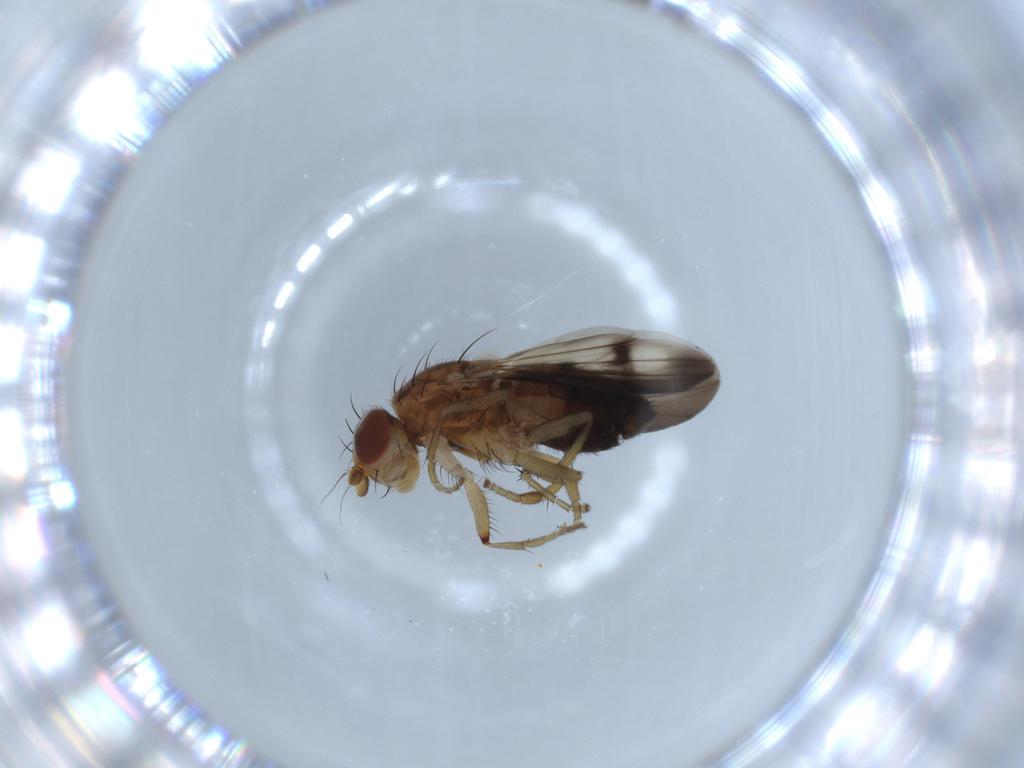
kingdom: Animalia
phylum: Arthropoda
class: Insecta
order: Diptera
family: Heleomyzidae
